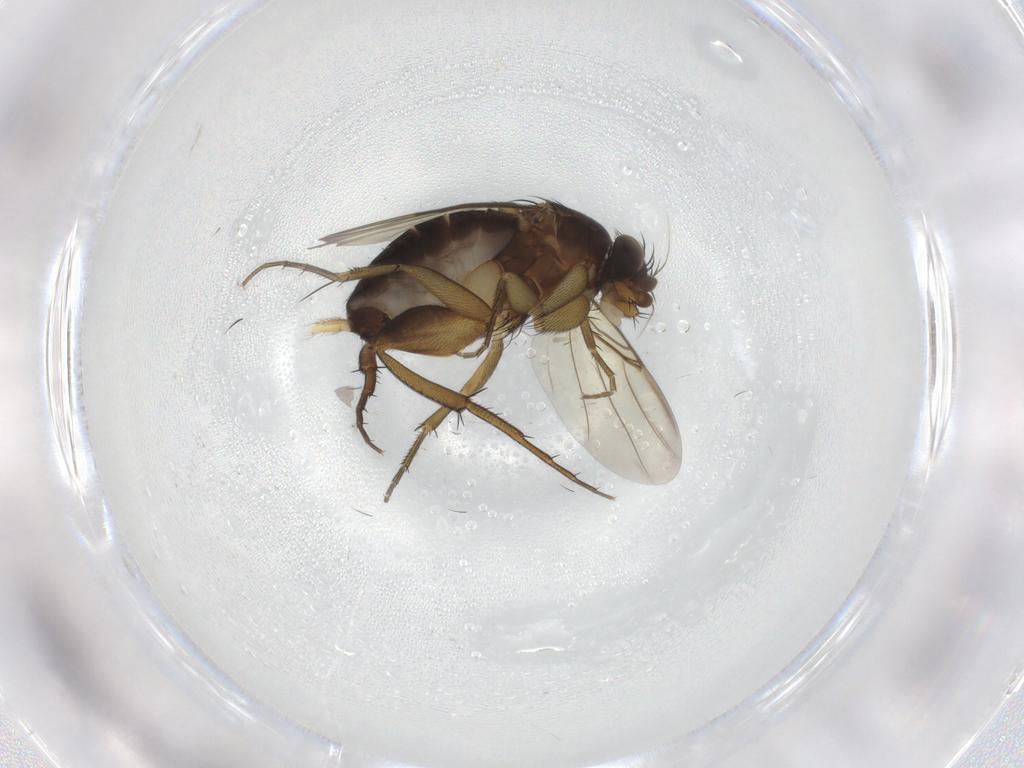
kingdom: Animalia
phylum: Arthropoda
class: Insecta
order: Diptera
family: Phoridae
